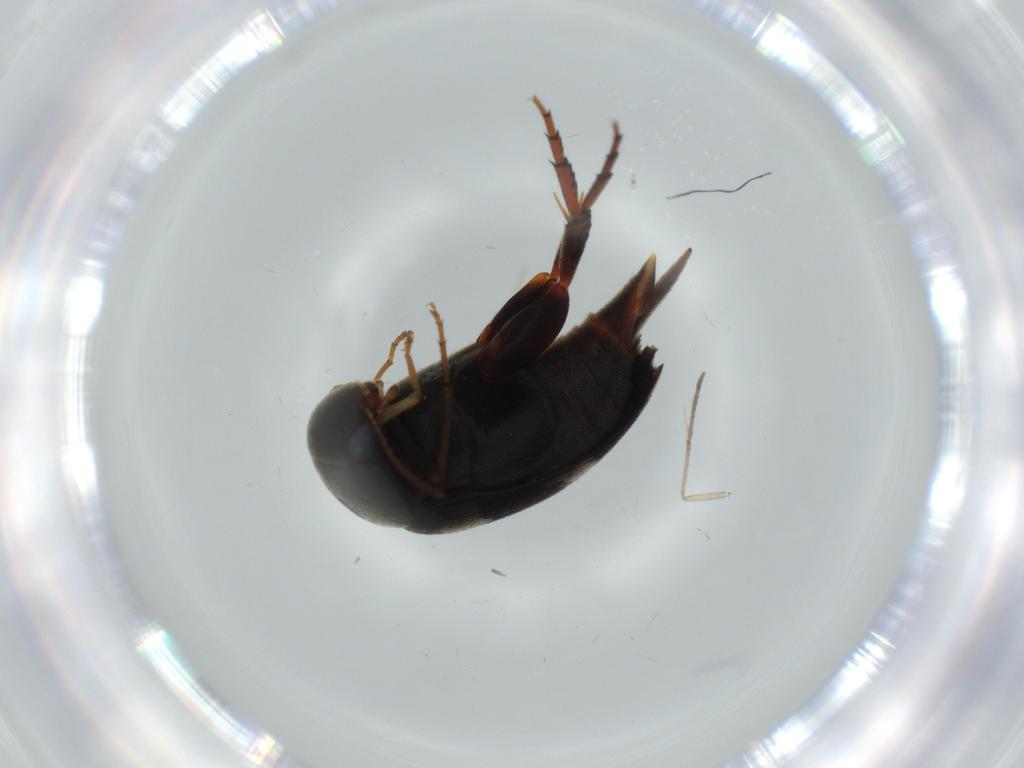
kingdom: Animalia
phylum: Arthropoda
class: Insecta
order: Coleoptera
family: Mordellidae
